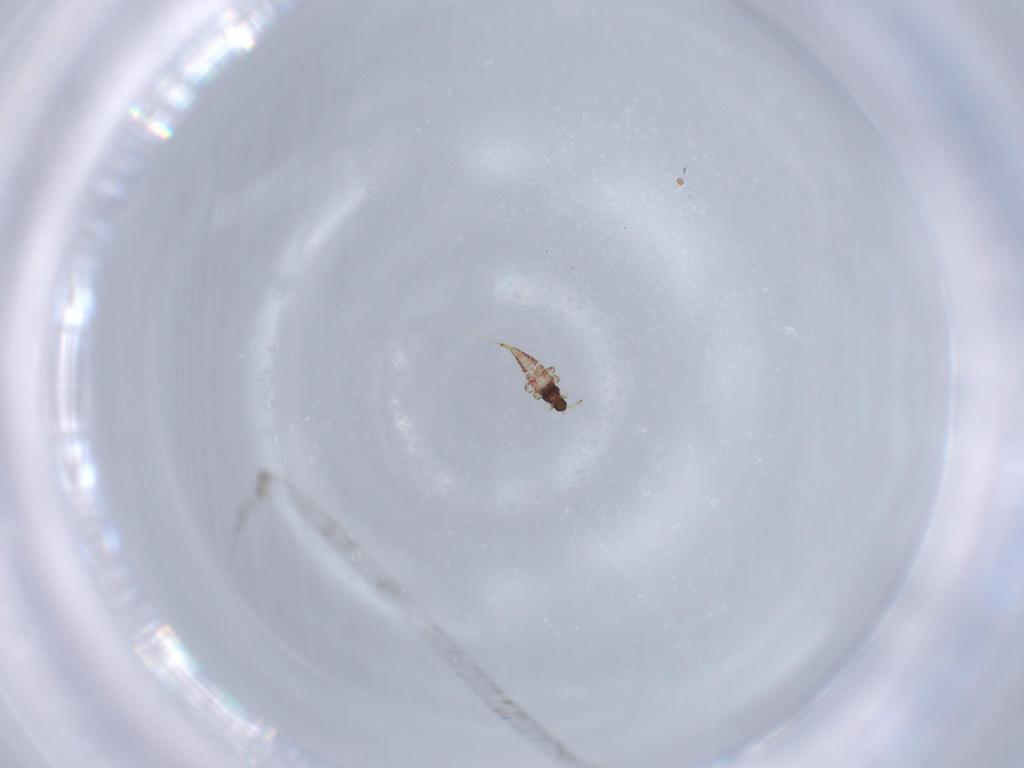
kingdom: Animalia
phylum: Arthropoda
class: Insecta
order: Thysanoptera
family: Phlaeothripidae
